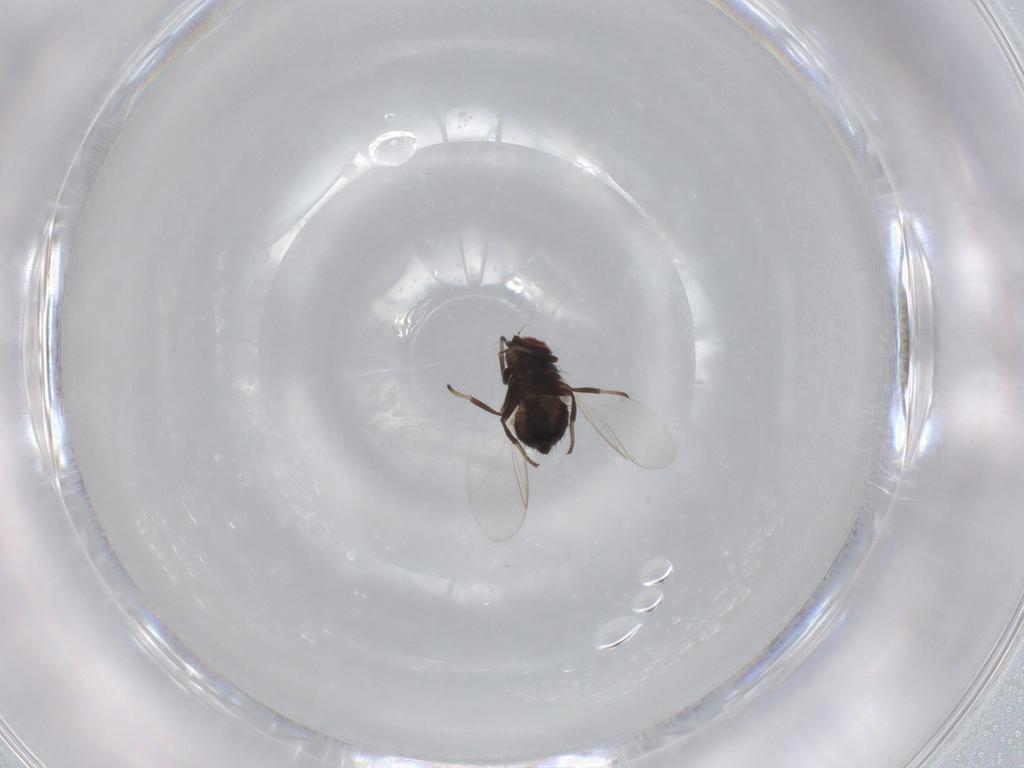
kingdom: Animalia
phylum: Arthropoda
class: Insecta
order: Diptera
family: Agromyzidae
